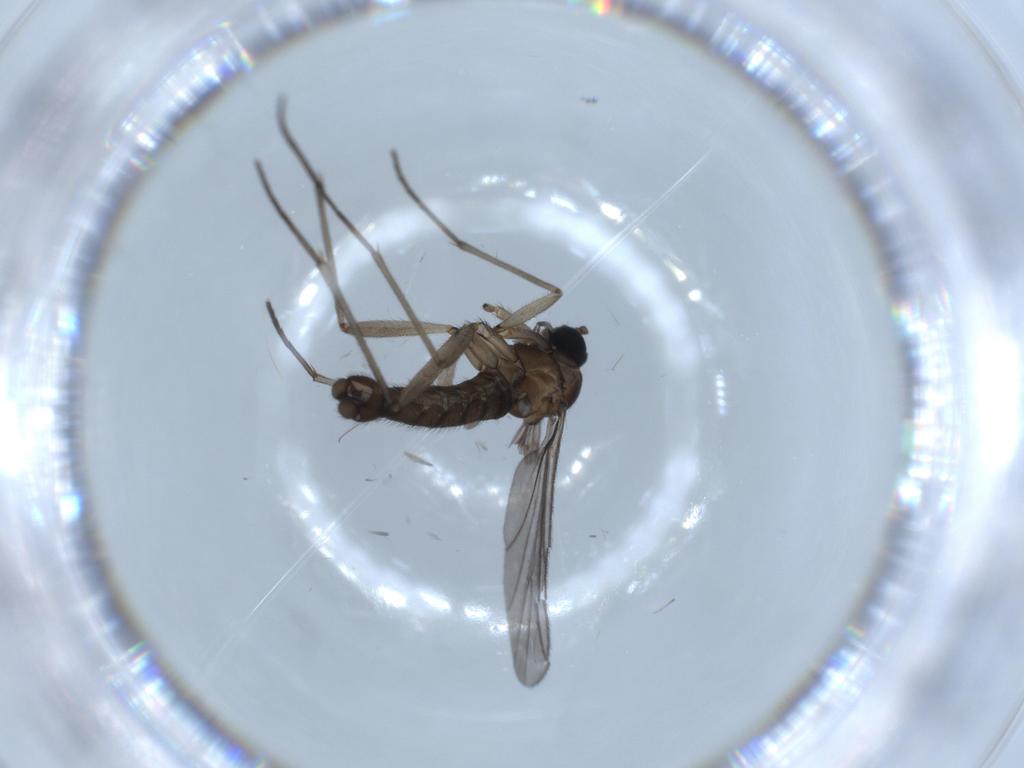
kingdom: Animalia
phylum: Arthropoda
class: Insecta
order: Diptera
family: Sciaridae
